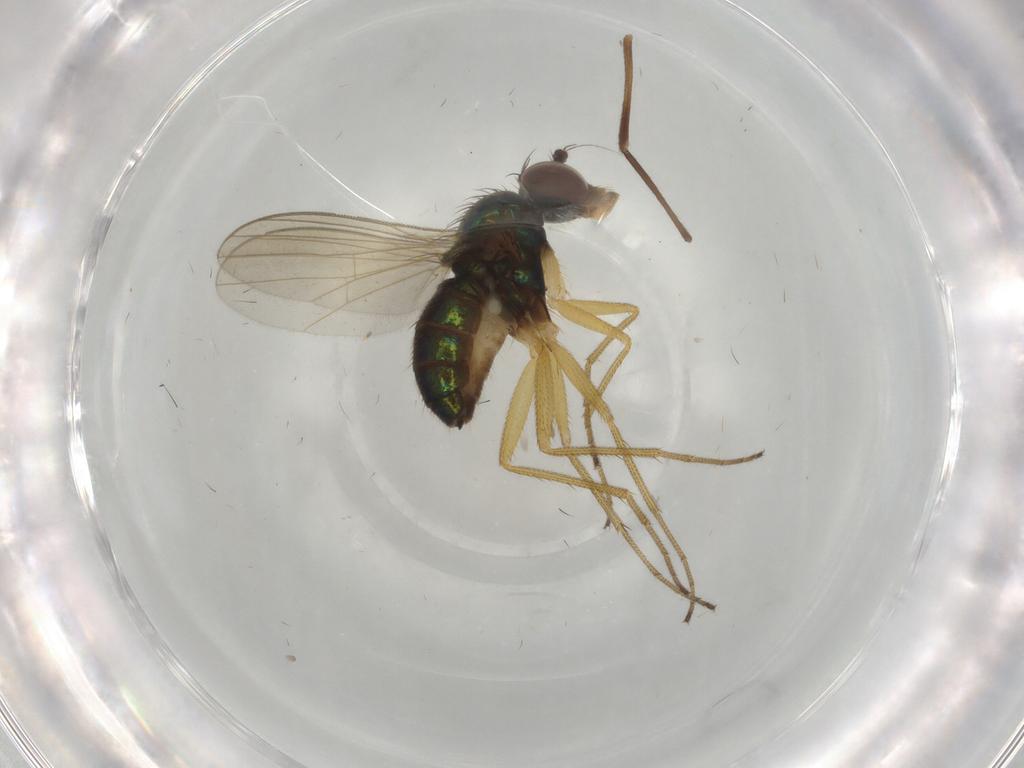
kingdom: Animalia
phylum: Arthropoda
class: Insecta
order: Diptera
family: Dolichopodidae
